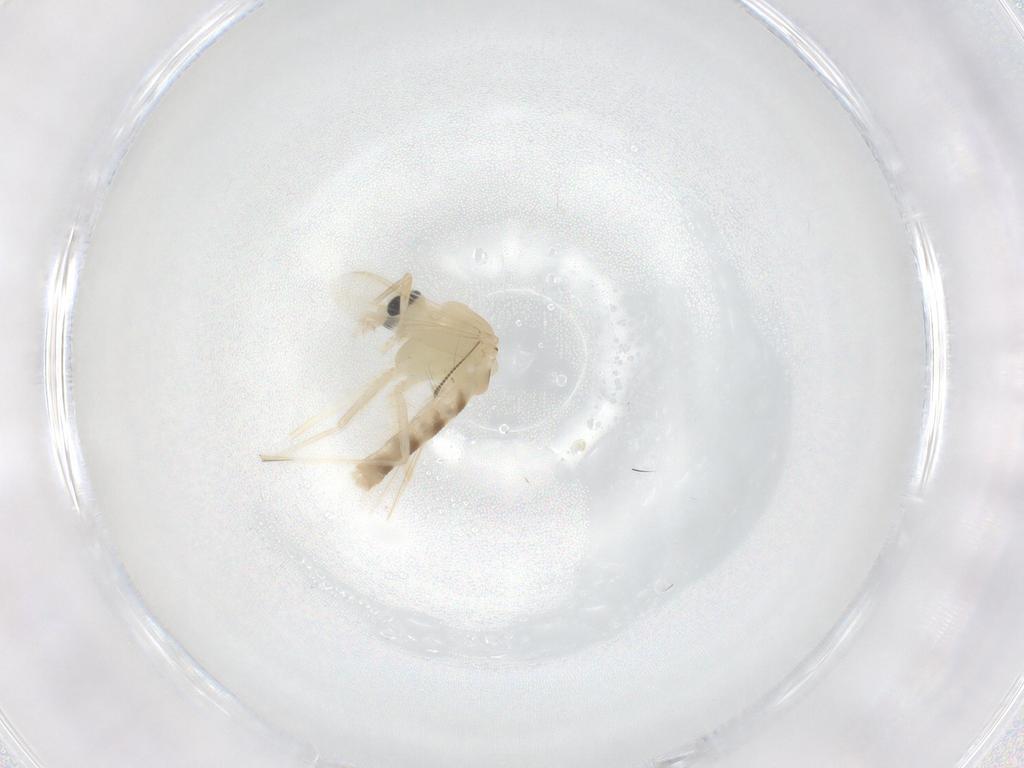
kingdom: Animalia
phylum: Arthropoda
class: Insecta
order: Diptera
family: Chironomidae
